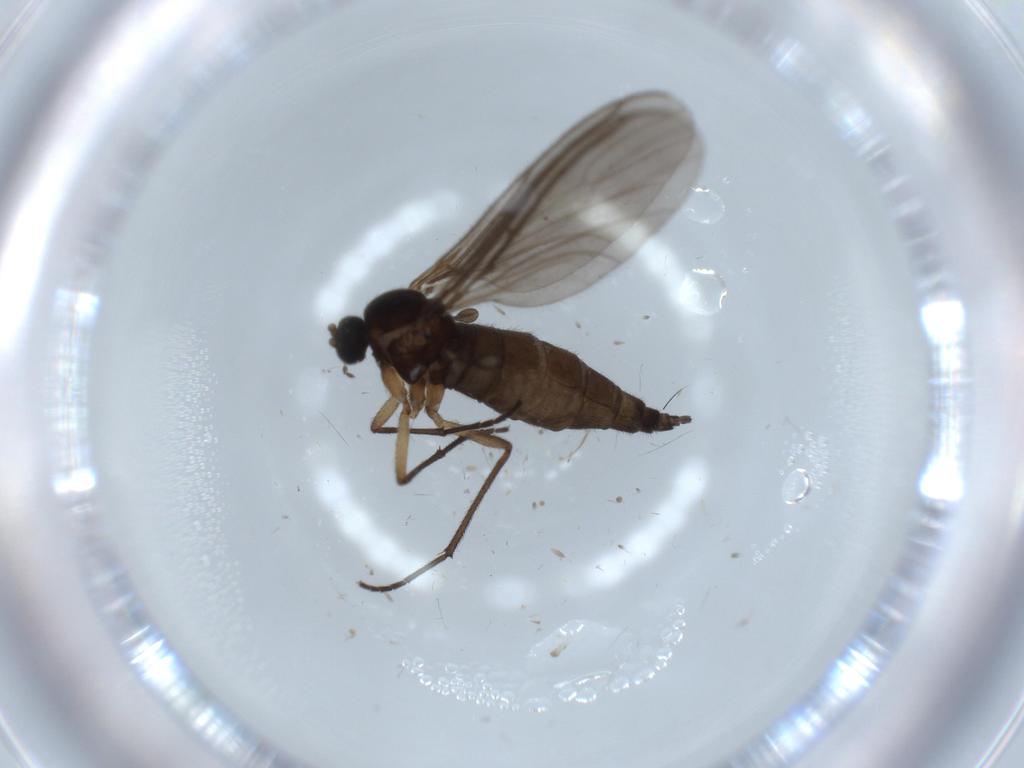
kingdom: Animalia
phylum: Arthropoda
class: Insecta
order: Diptera
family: Sciaridae
